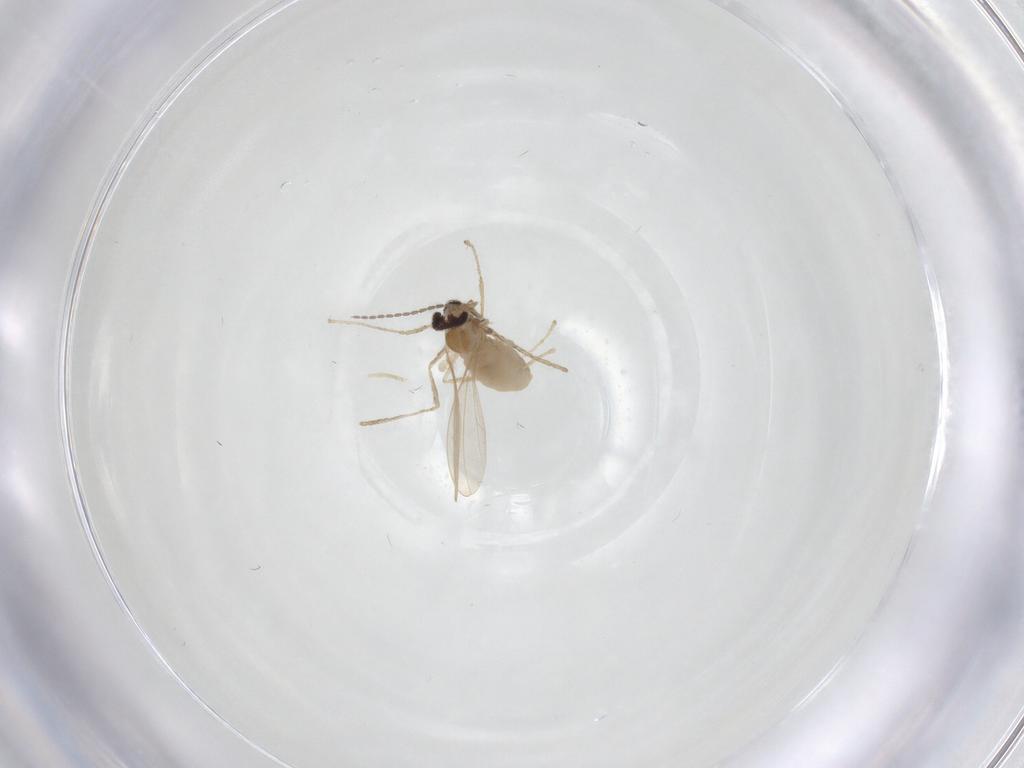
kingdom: Animalia
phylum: Arthropoda
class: Insecta
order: Diptera
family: Cecidomyiidae
